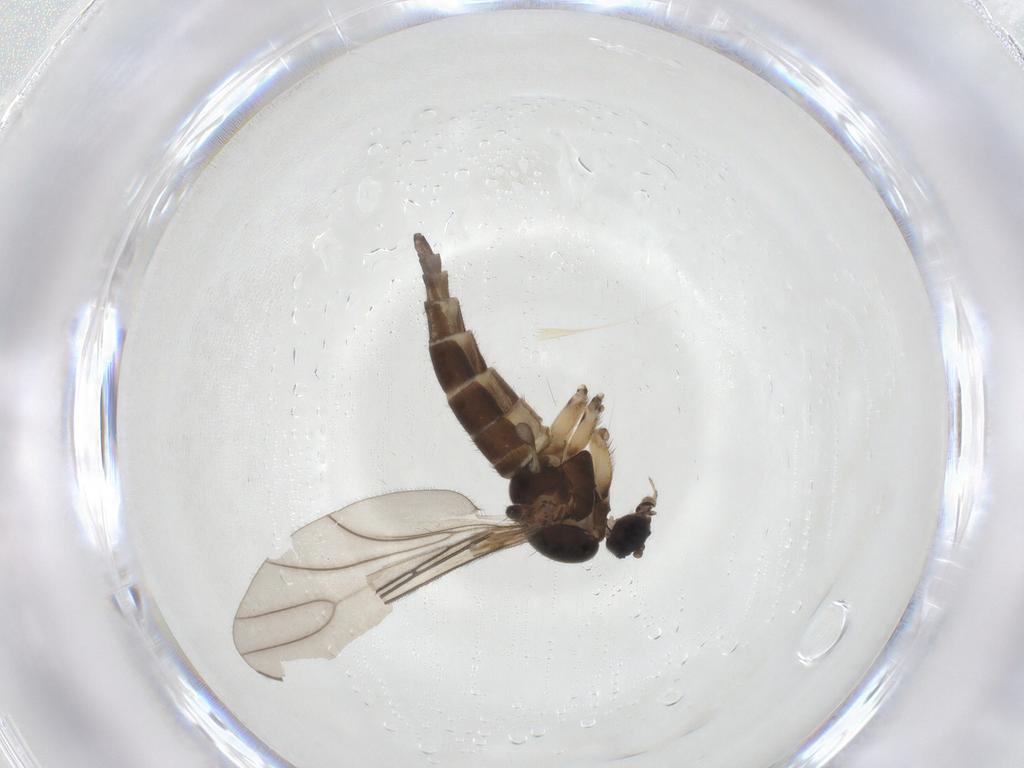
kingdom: Animalia
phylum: Arthropoda
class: Insecta
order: Diptera
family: Sciaridae
